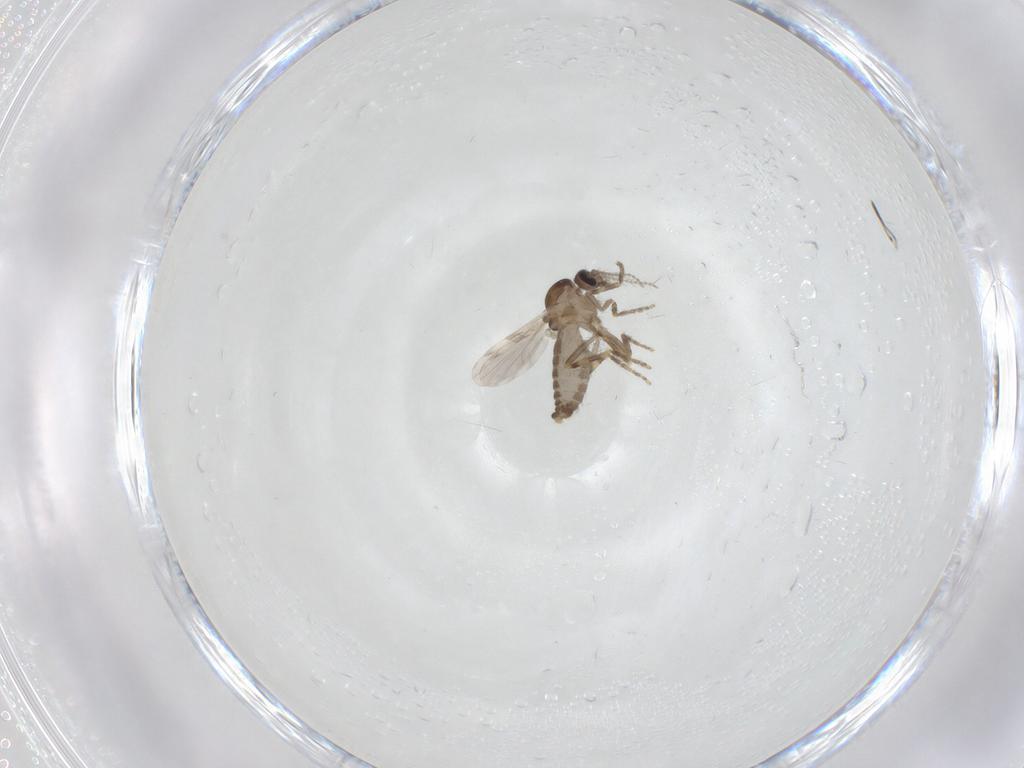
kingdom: Animalia
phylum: Arthropoda
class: Insecta
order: Diptera
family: Ceratopogonidae
